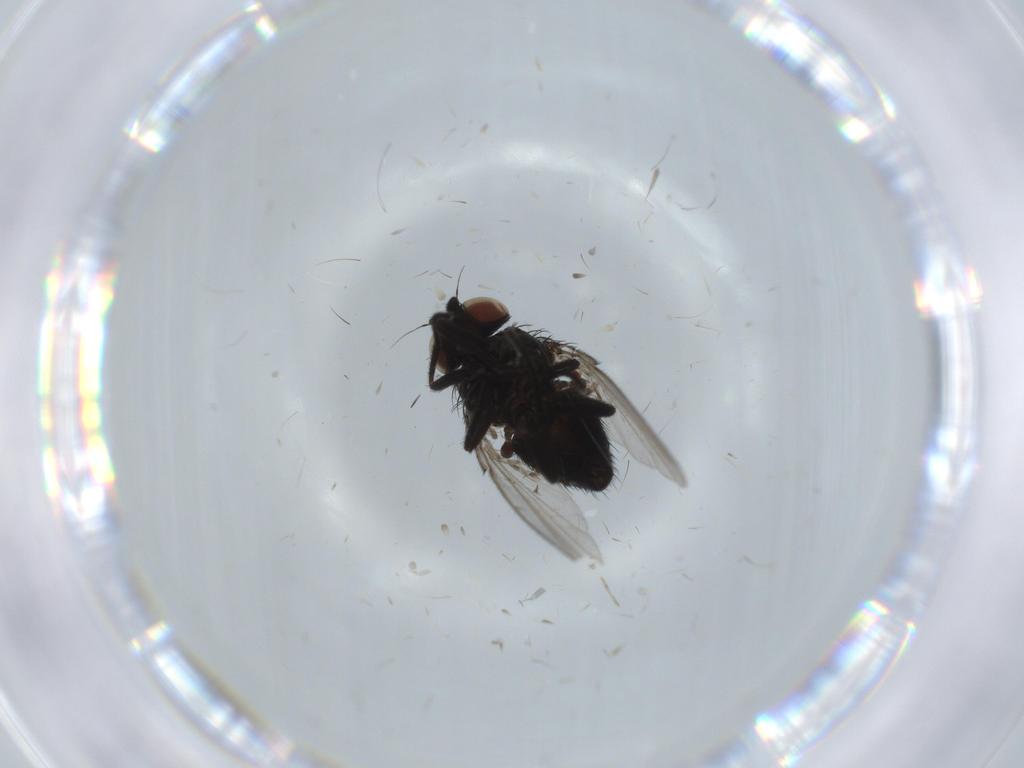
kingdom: Animalia
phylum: Arthropoda
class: Insecta
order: Diptera
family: Cecidomyiidae
